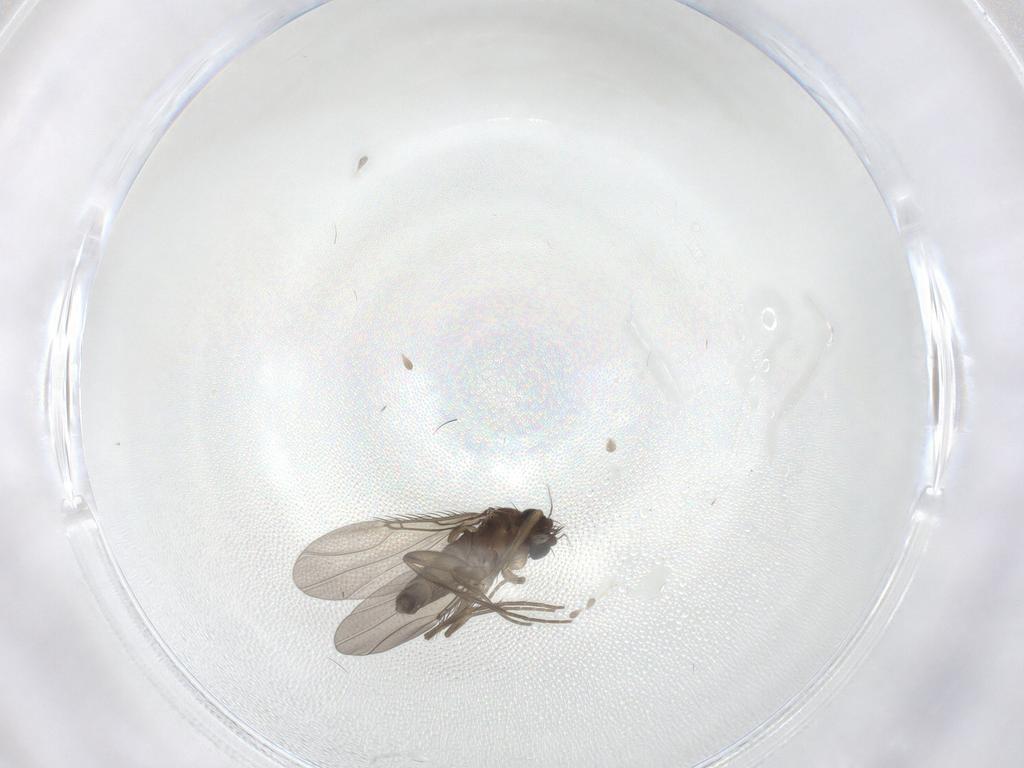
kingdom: Animalia
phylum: Arthropoda
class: Insecta
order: Diptera
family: Phoridae
